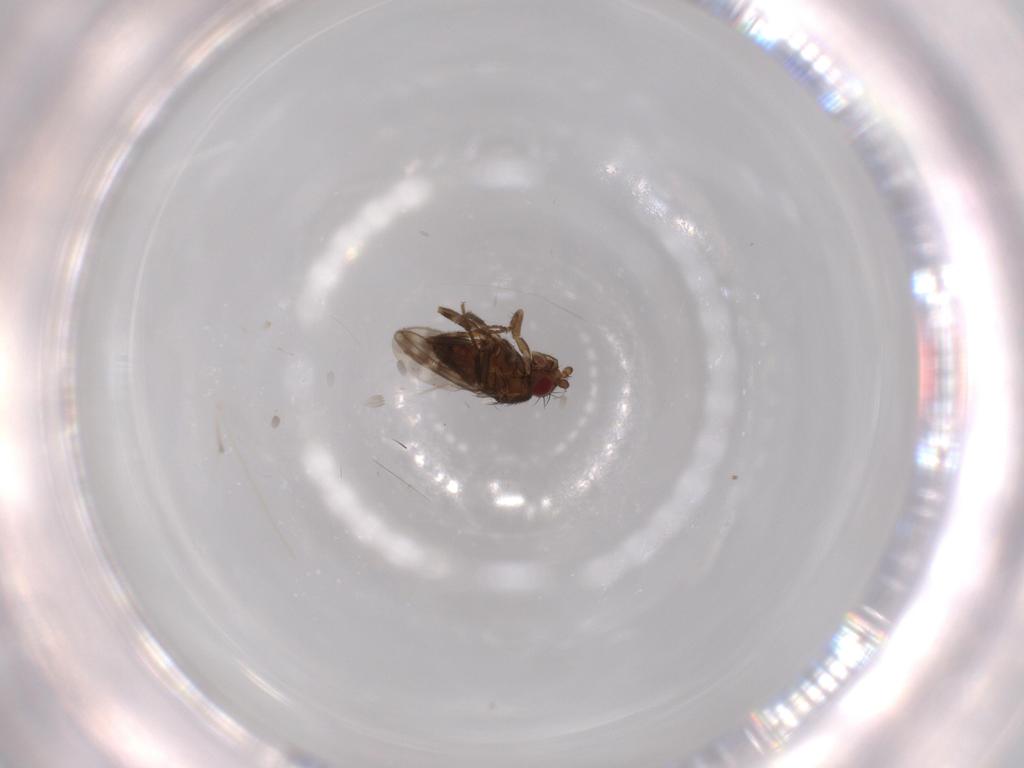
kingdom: Animalia
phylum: Arthropoda
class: Insecta
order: Diptera
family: Sphaeroceridae
